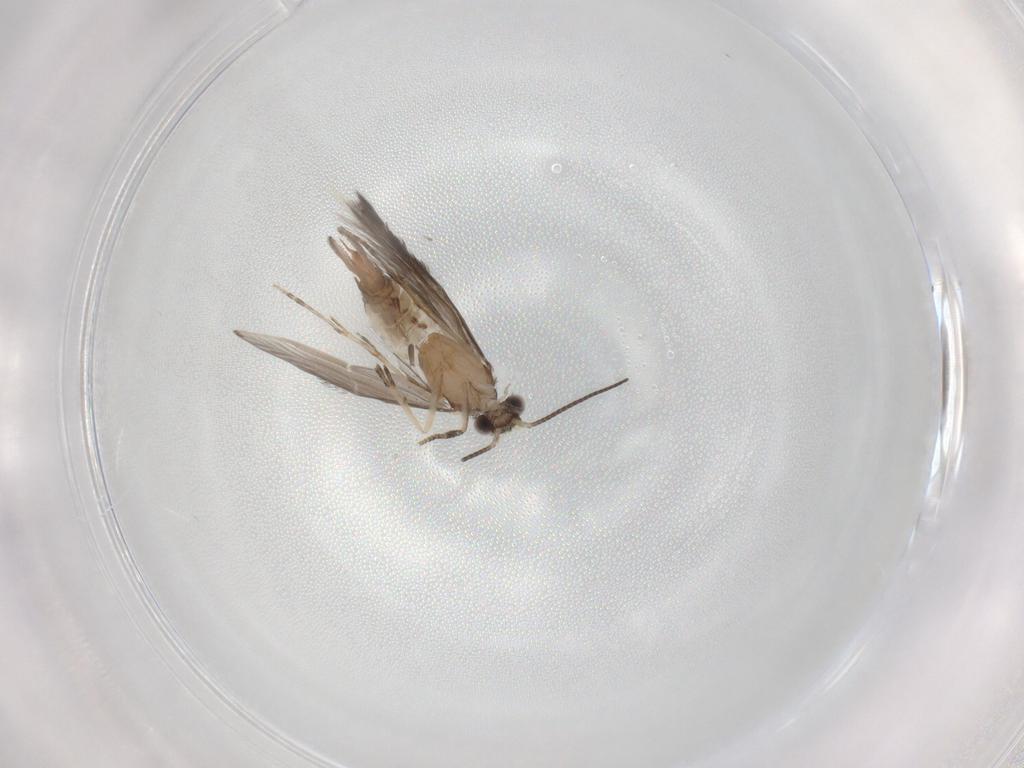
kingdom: Animalia
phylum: Arthropoda
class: Insecta
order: Trichoptera
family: Hydroptilidae
